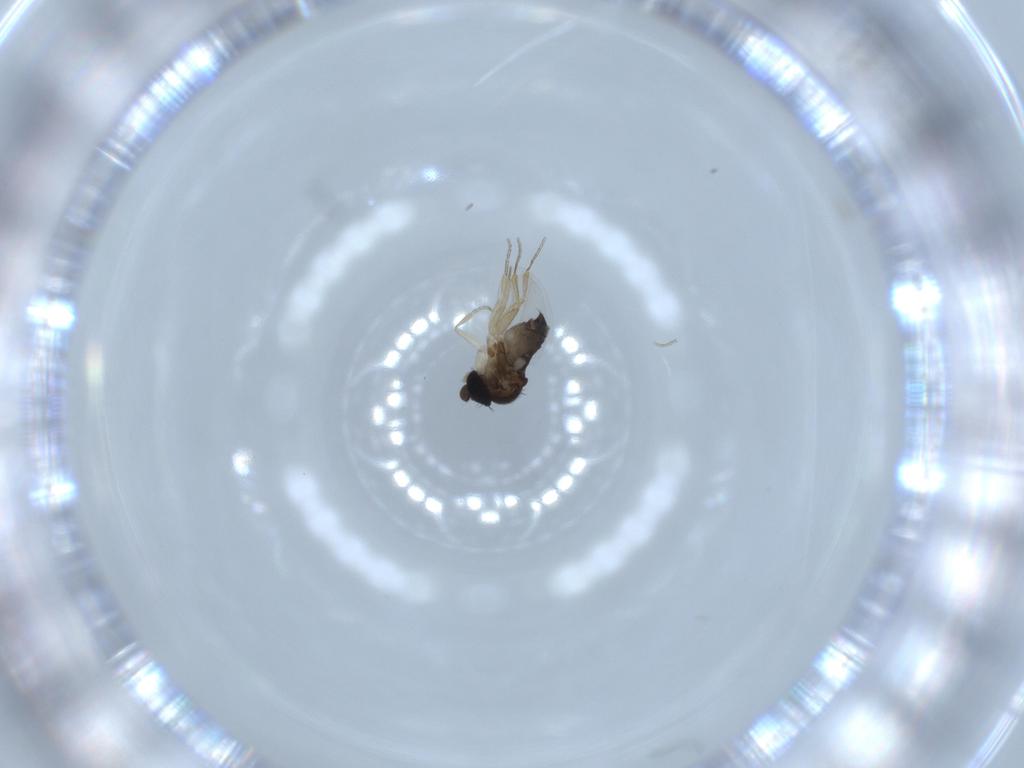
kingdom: Animalia
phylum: Arthropoda
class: Insecta
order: Diptera
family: Phoridae
